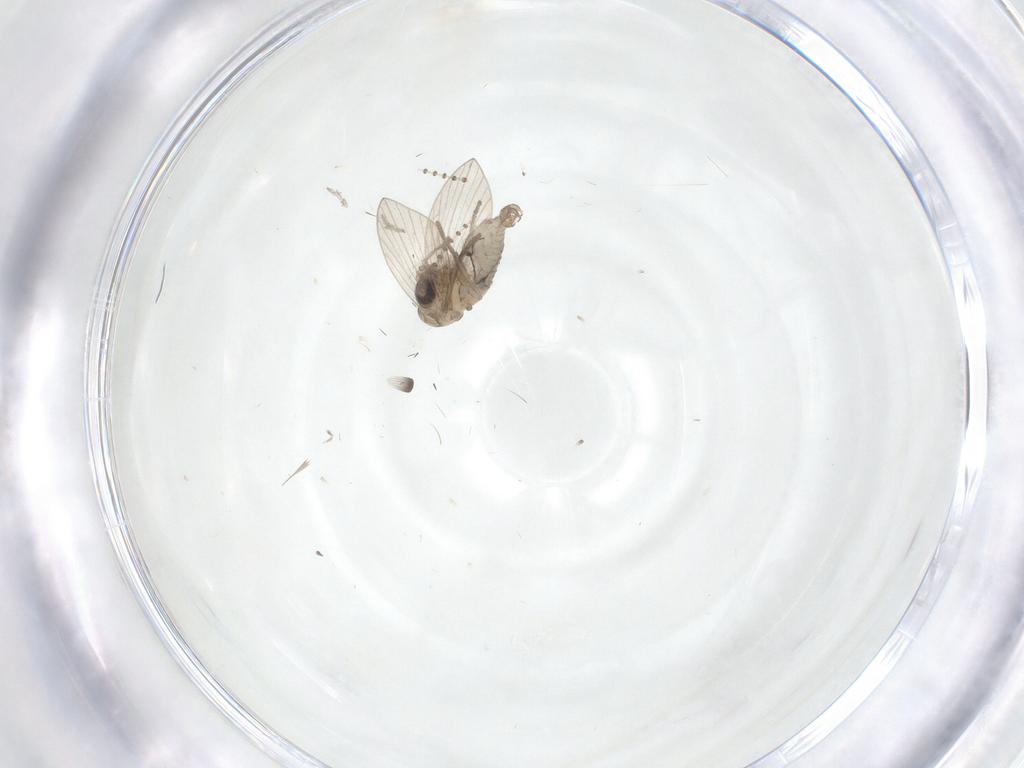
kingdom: Animalia
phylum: Arthropoda
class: Insecta
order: Diptera
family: Psychodidae
